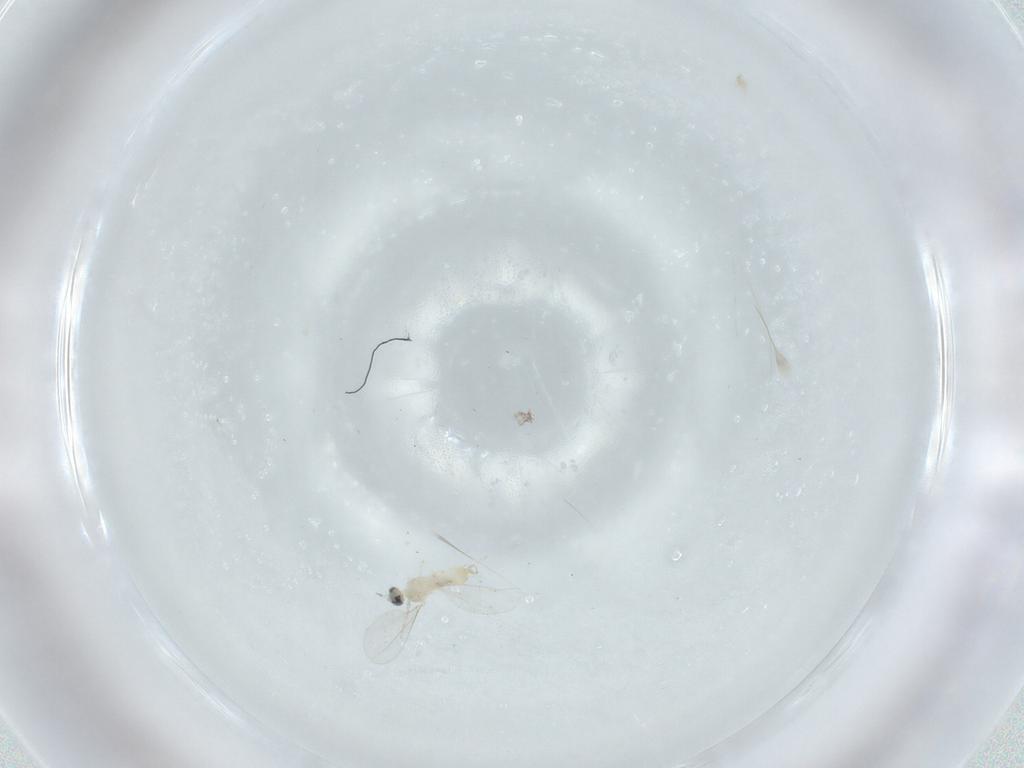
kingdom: Animalia
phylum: Arthropoda
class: Insecta
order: Diptera
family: Cecidomyiidae
